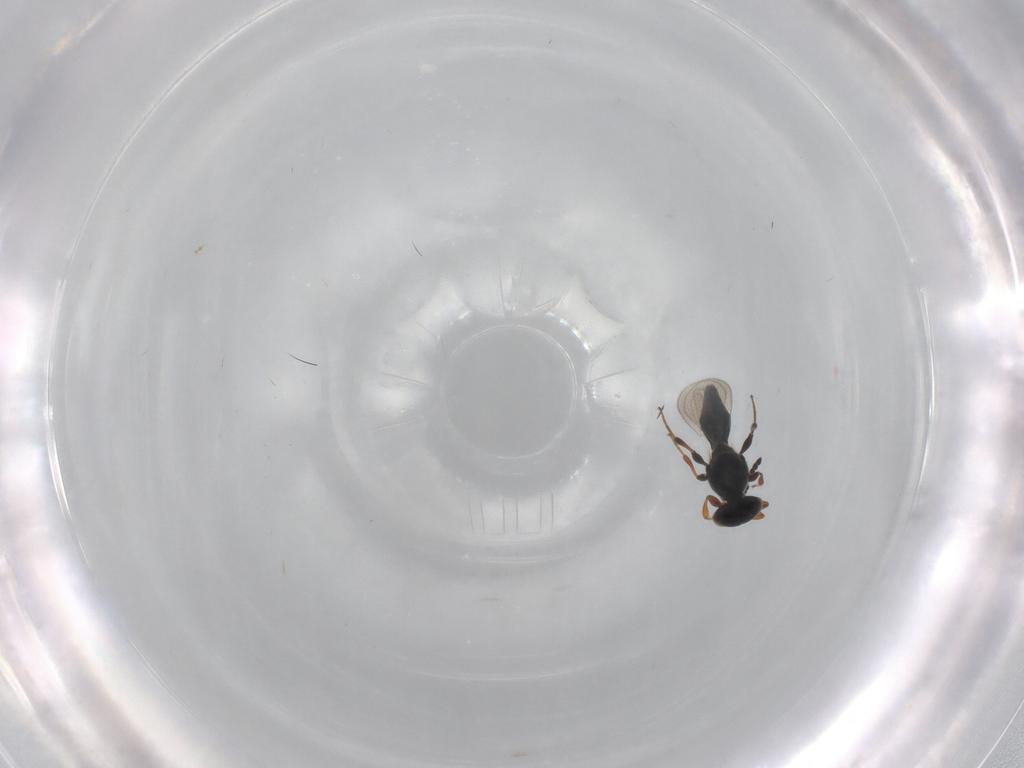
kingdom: Animalia
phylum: Arthropoda
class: Insecta
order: Hymenoptera
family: Platygastridae
